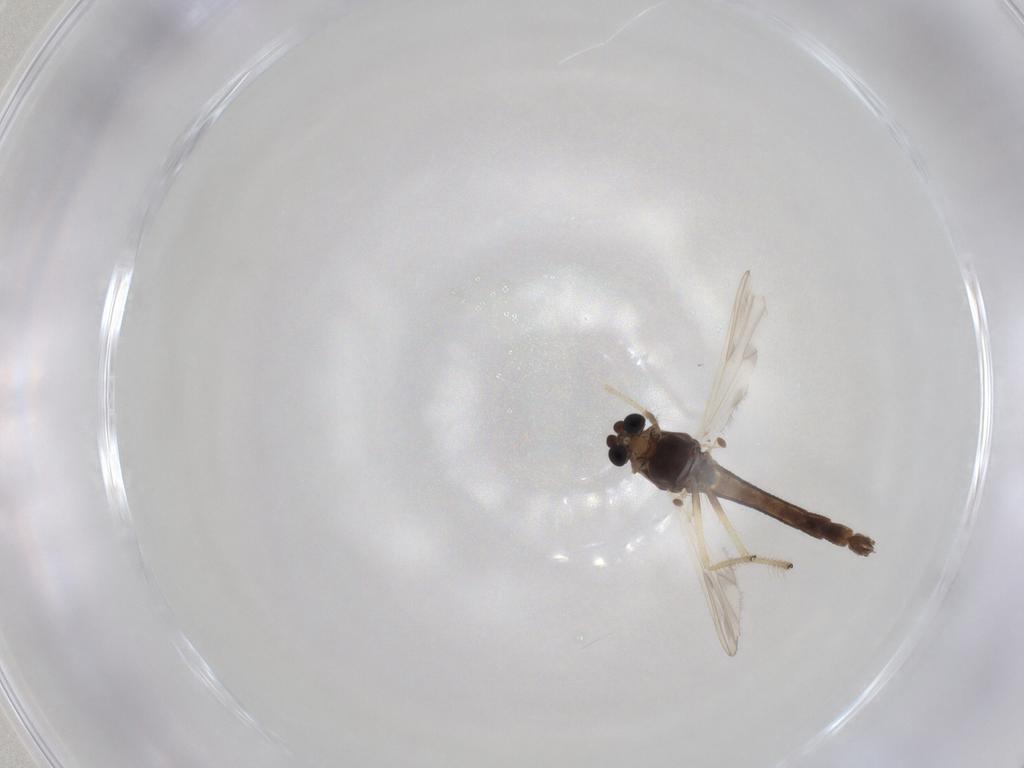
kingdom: Animalia
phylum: Arthropoda
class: Insecta
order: Diptera
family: Chironomidae
